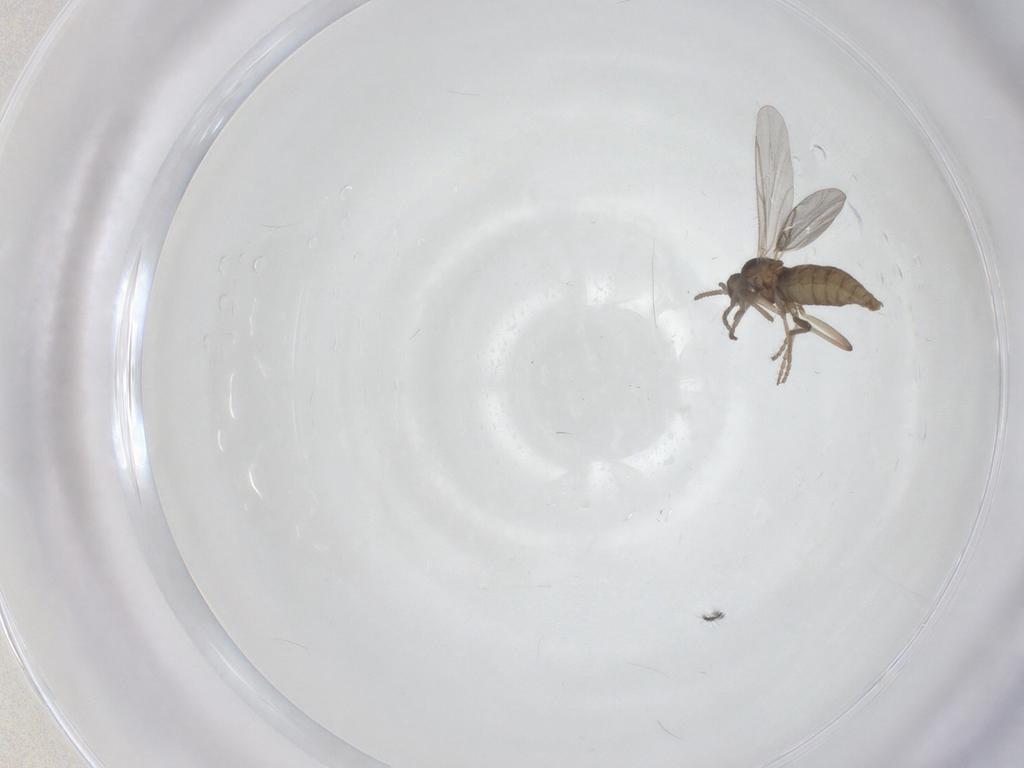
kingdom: Animalia
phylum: Arthropoda
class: Insecta
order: Diptera
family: Chironomidae
